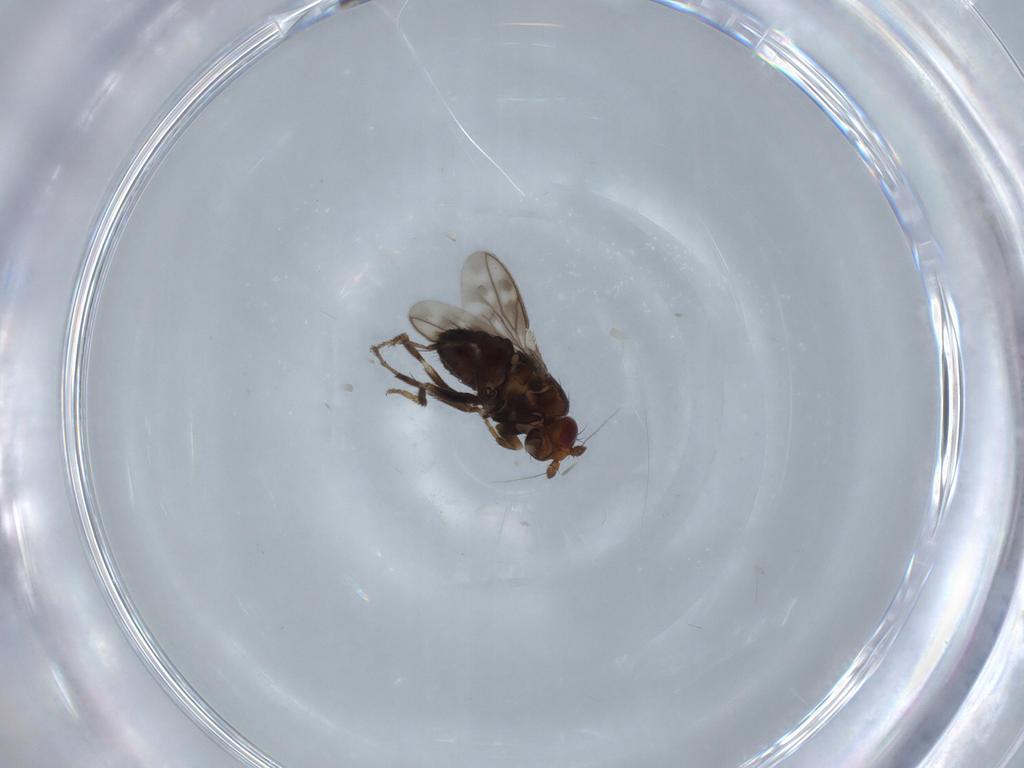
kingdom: Animalia
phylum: Arthropoda
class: Insecta
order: Diptera
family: Sphaeroceridae
